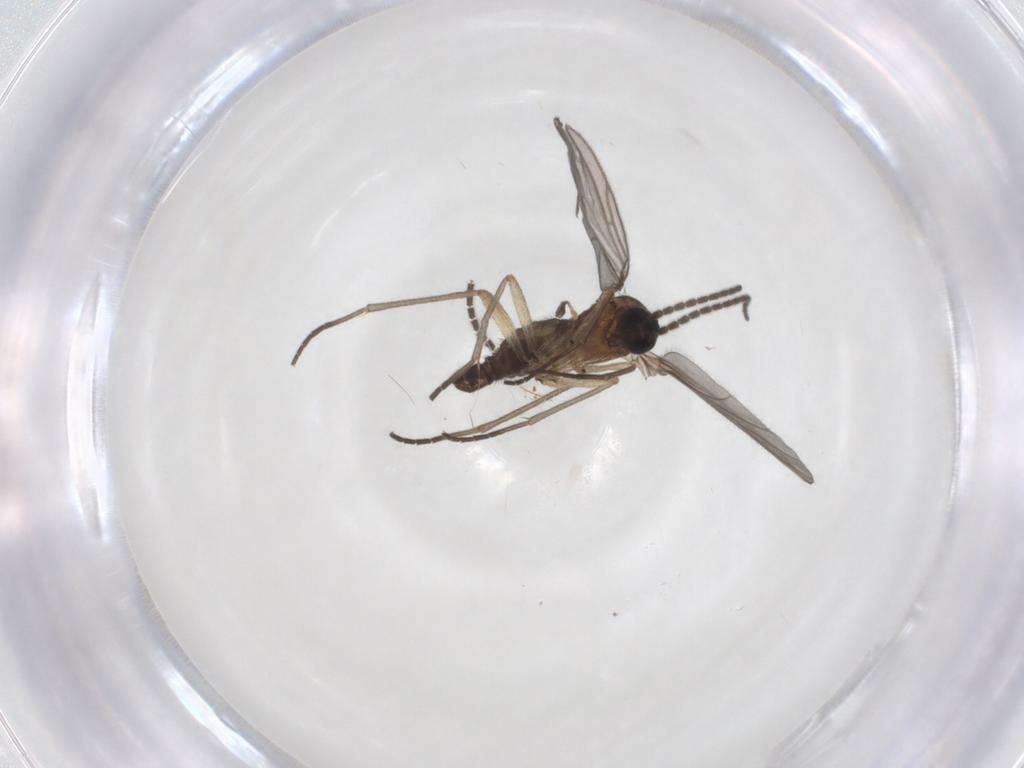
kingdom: Animalia
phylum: Arthropoda
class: Insecta
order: Diptera
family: Sciaridae
